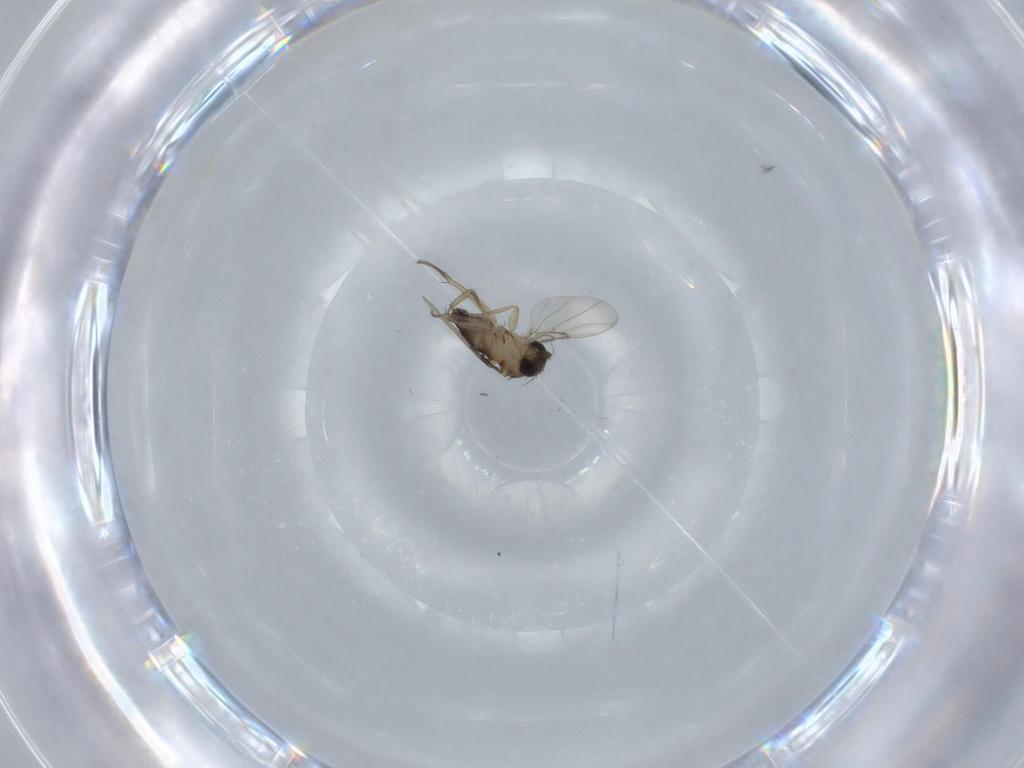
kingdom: Animalia
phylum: Arthropoda
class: Insecta
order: Diptera
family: Phoridae
